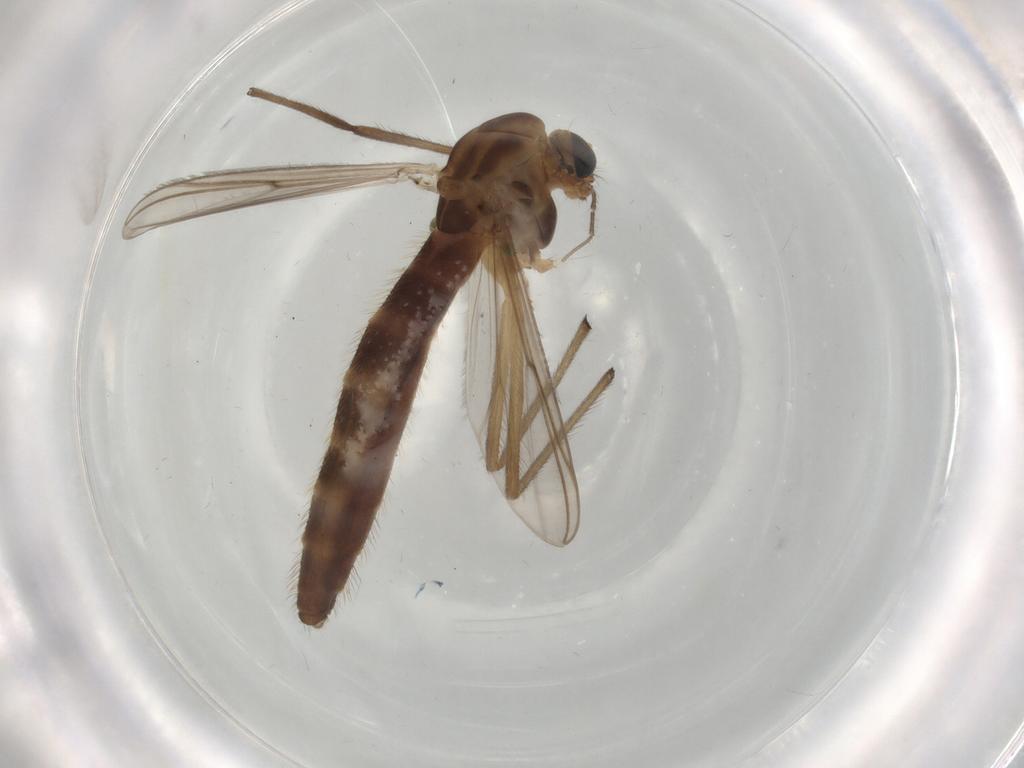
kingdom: Animalia
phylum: Arthropoda
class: Insecta
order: Diptera
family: Chironomidae
